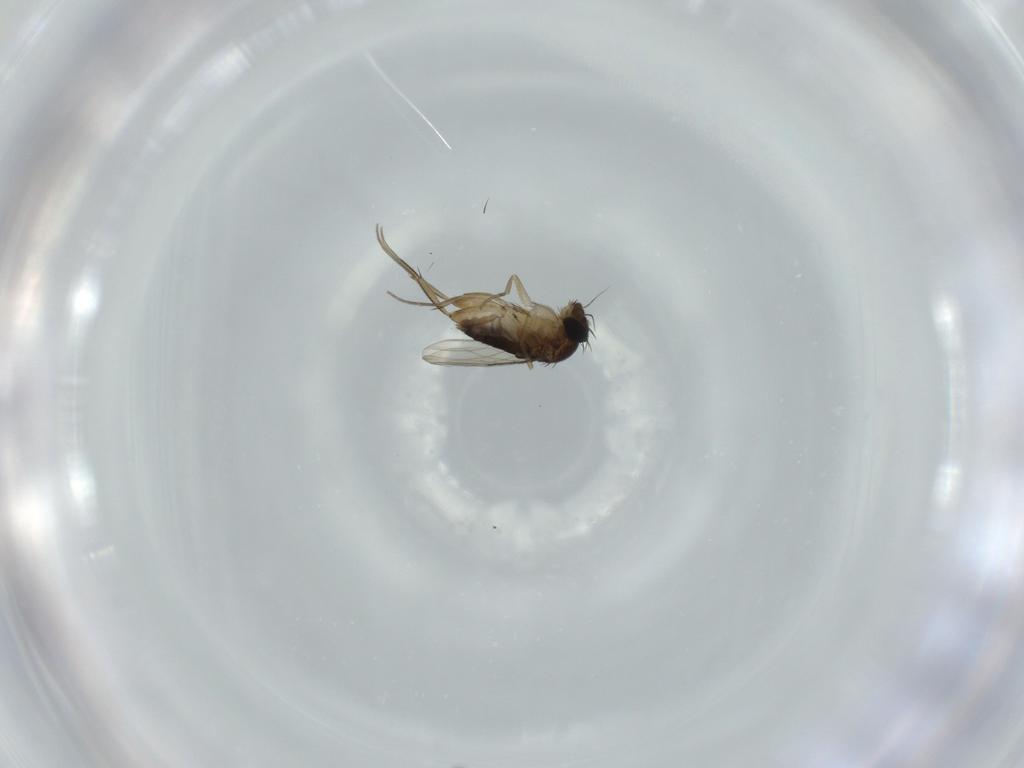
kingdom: Animalia
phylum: Arthropoda
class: Insecta
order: Diptera
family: Phoridae
